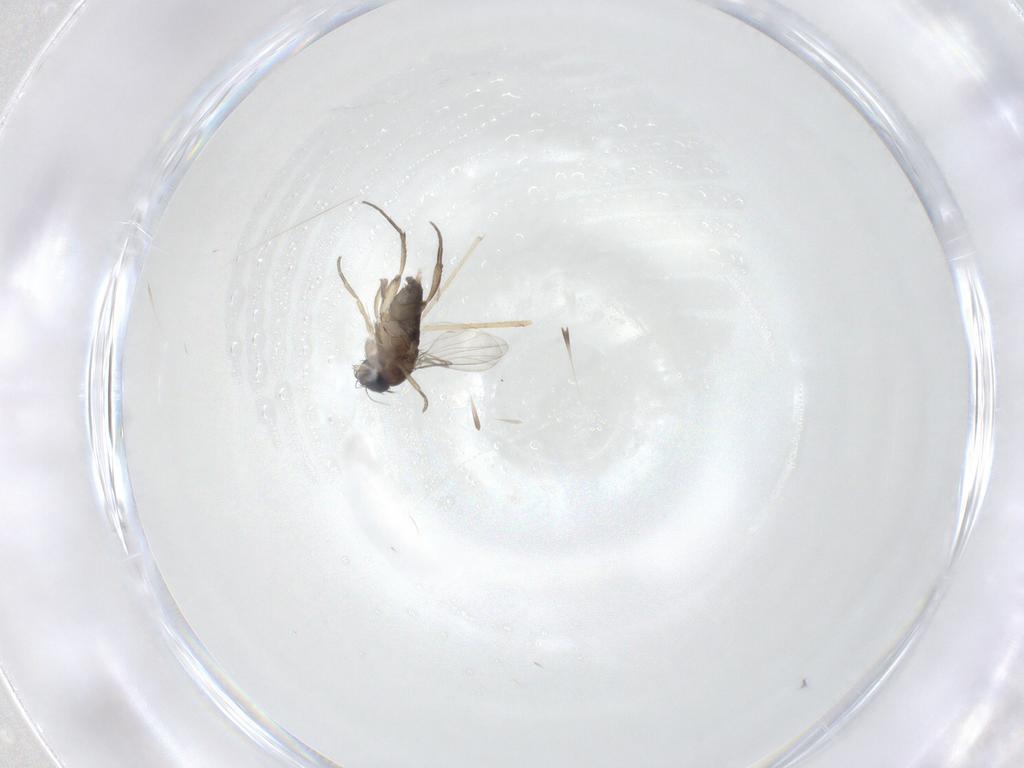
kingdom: Animalia
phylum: Arthropoda
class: Insecta
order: Diptera
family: Phoridae
